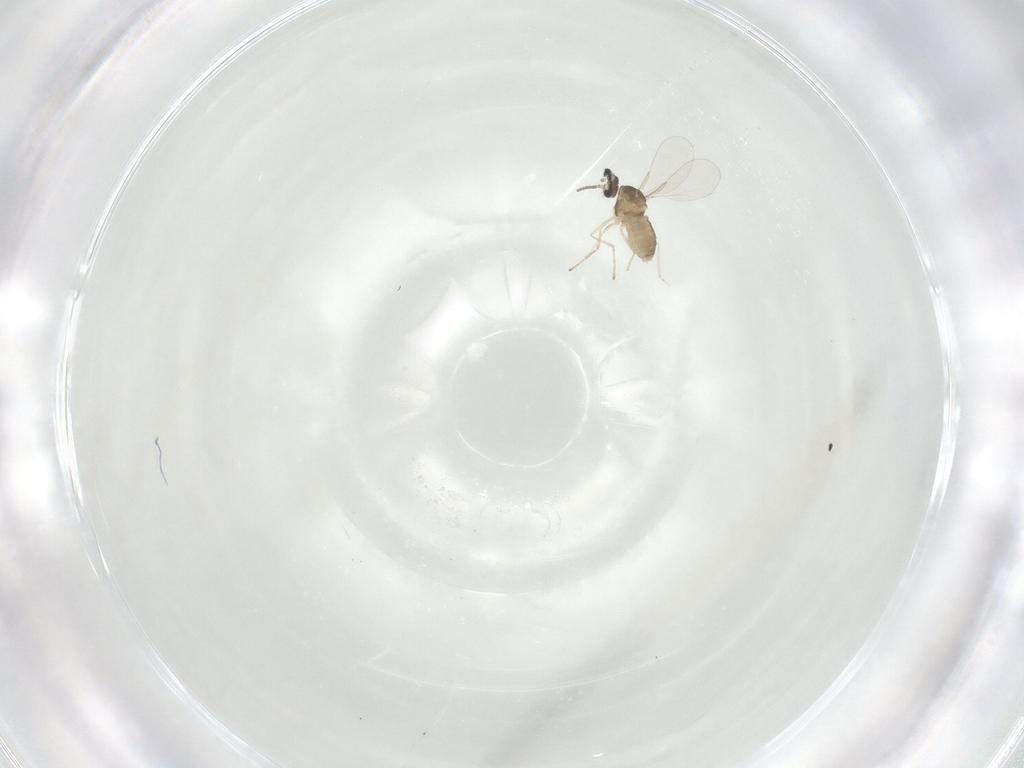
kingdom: Animalia
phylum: Arthropoda
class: Insecta
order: Diptera
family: Cecidomyiidae
